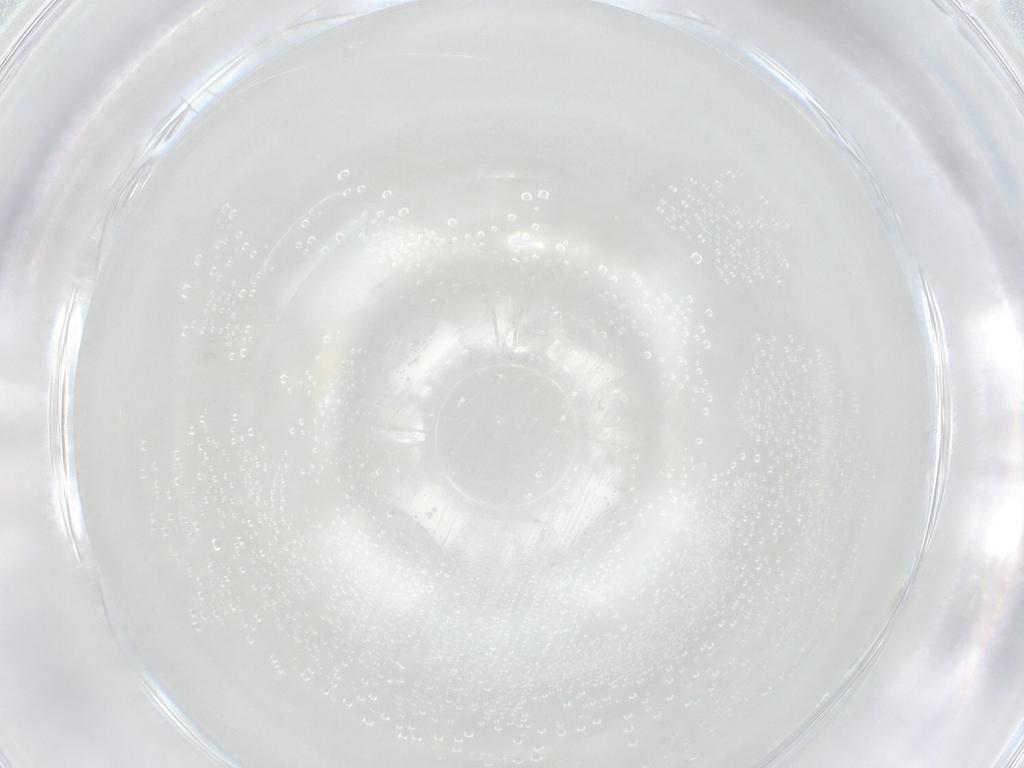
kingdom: Animalia
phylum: Arthropoda
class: Arachnida
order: Trombidiformes
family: Eupodidae
